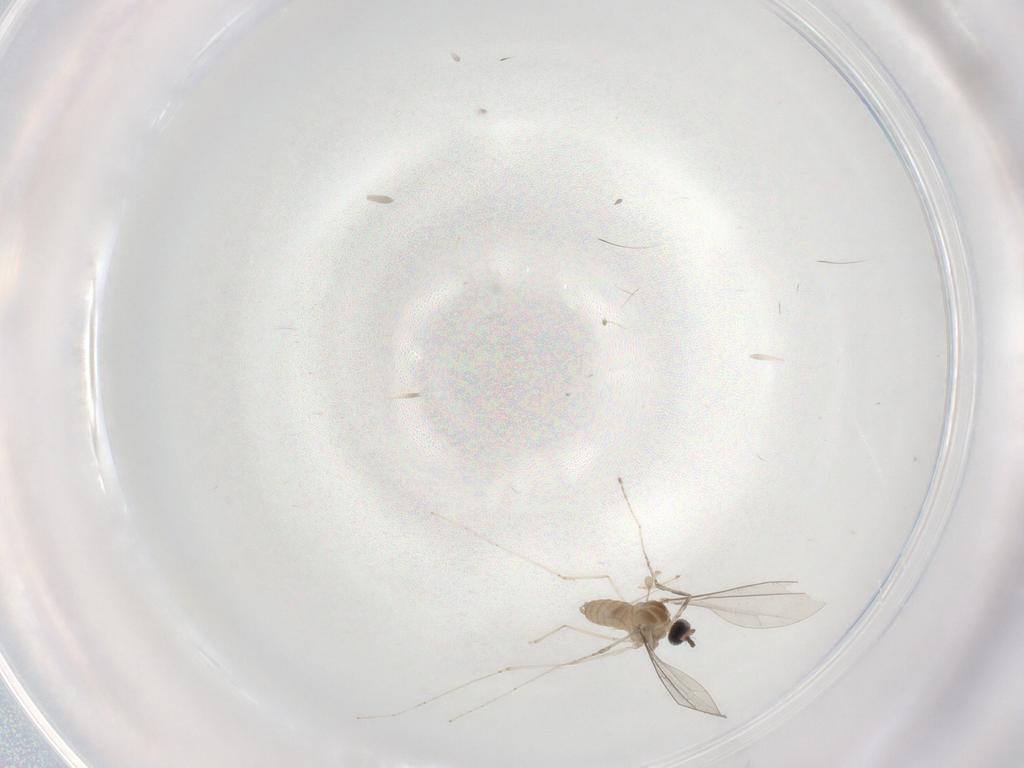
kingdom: Animalia
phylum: Arthropoda
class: Insecta
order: Diptera
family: Cecidomyiidae
